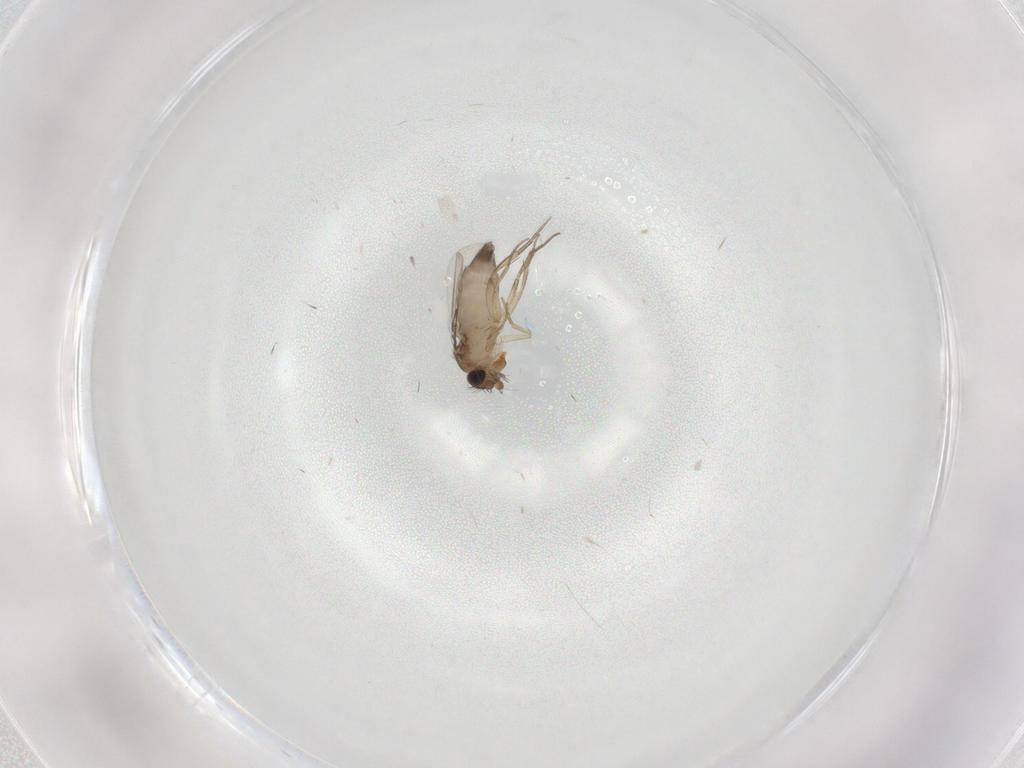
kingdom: Animalia
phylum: Arthropoda
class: Insecta
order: Diptera
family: Phoridae
